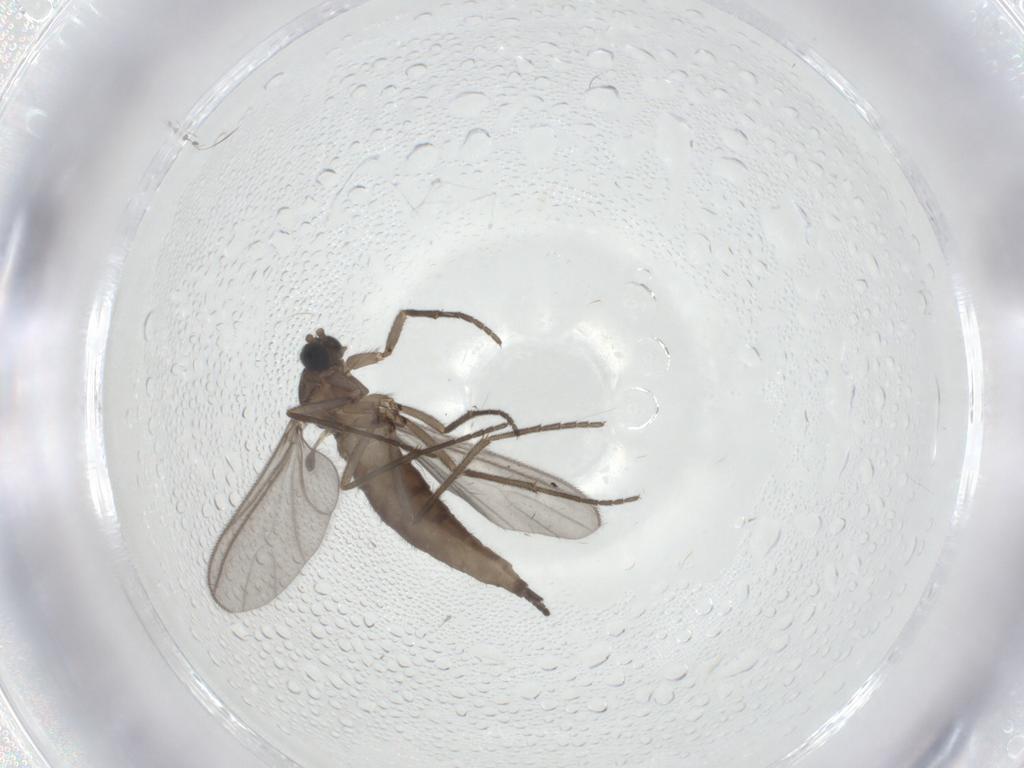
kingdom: Animalia
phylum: Arthropoda
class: Insecta
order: Diptera
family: Sciaridae
